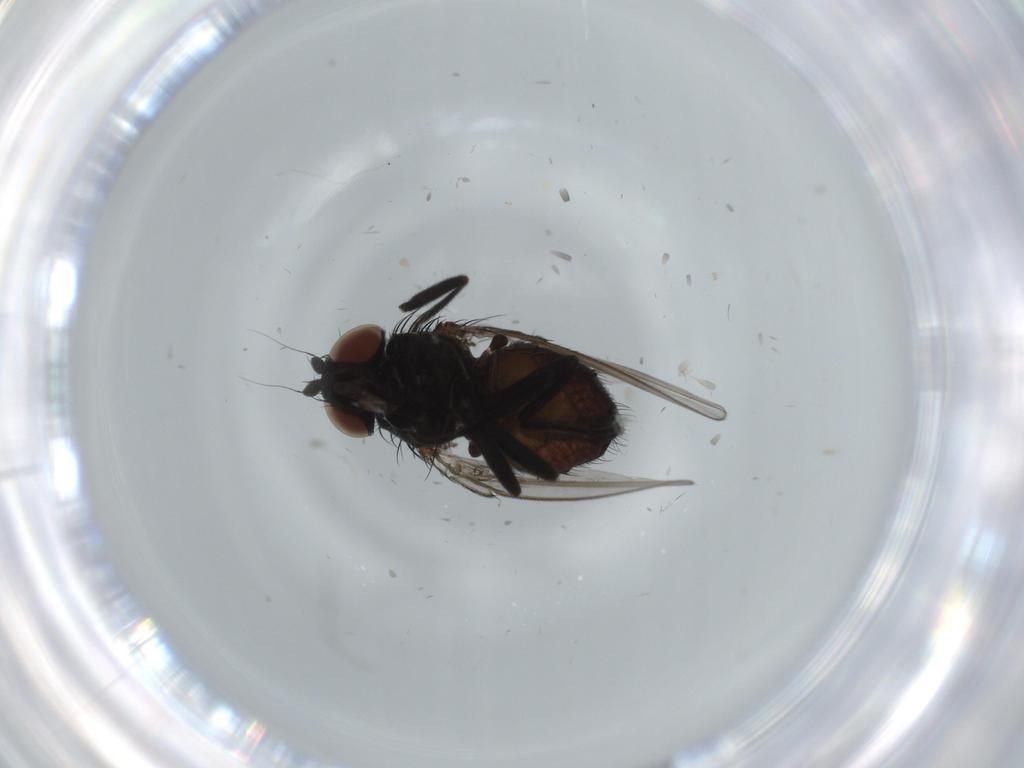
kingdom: Animalia
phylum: Arthropoda
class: Insecta
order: Diptera
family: Milichiidae
